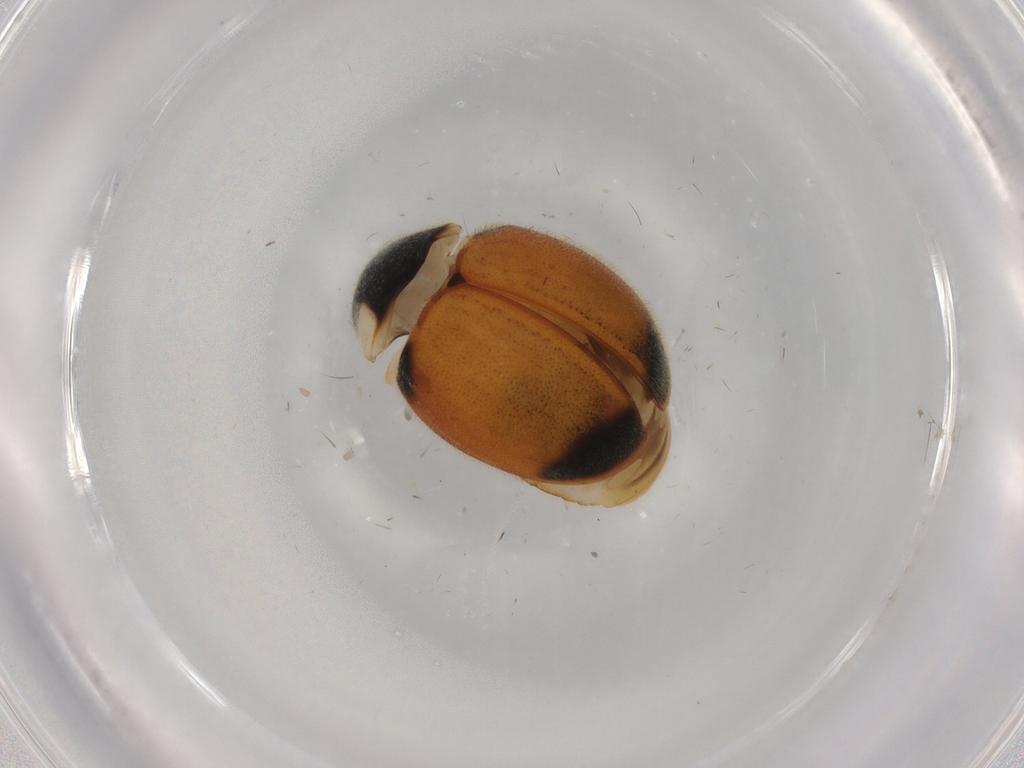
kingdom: Animalia
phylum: Arthropoda
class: Insecta
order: Coleoptera
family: Coccinellidae
